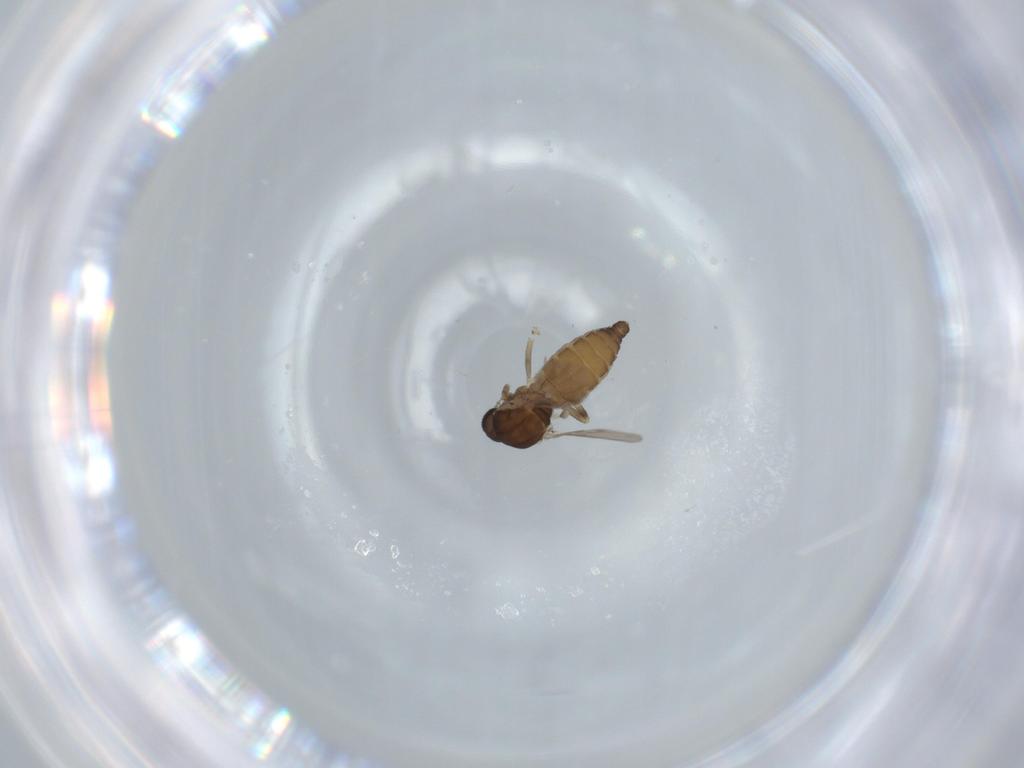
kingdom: Animalia
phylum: Arthropoda
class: Insecta
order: Diptera
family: Ceratopogonidae
